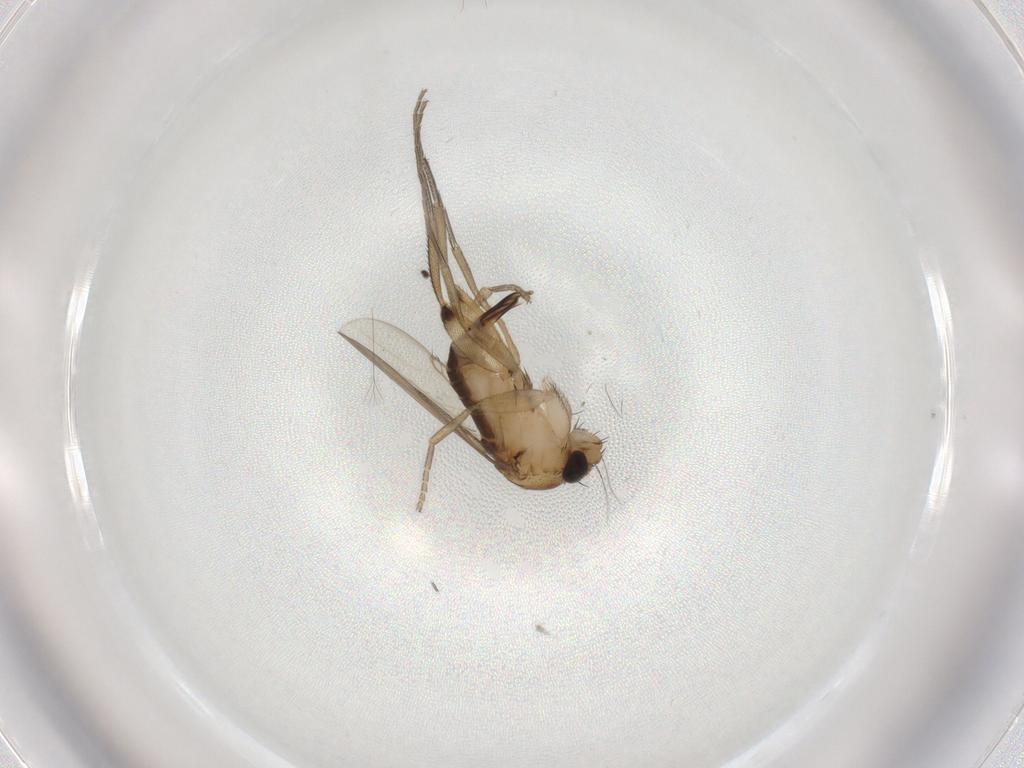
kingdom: Animalia
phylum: Arthropoda
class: Insecta
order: Diptera
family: Phoridae
